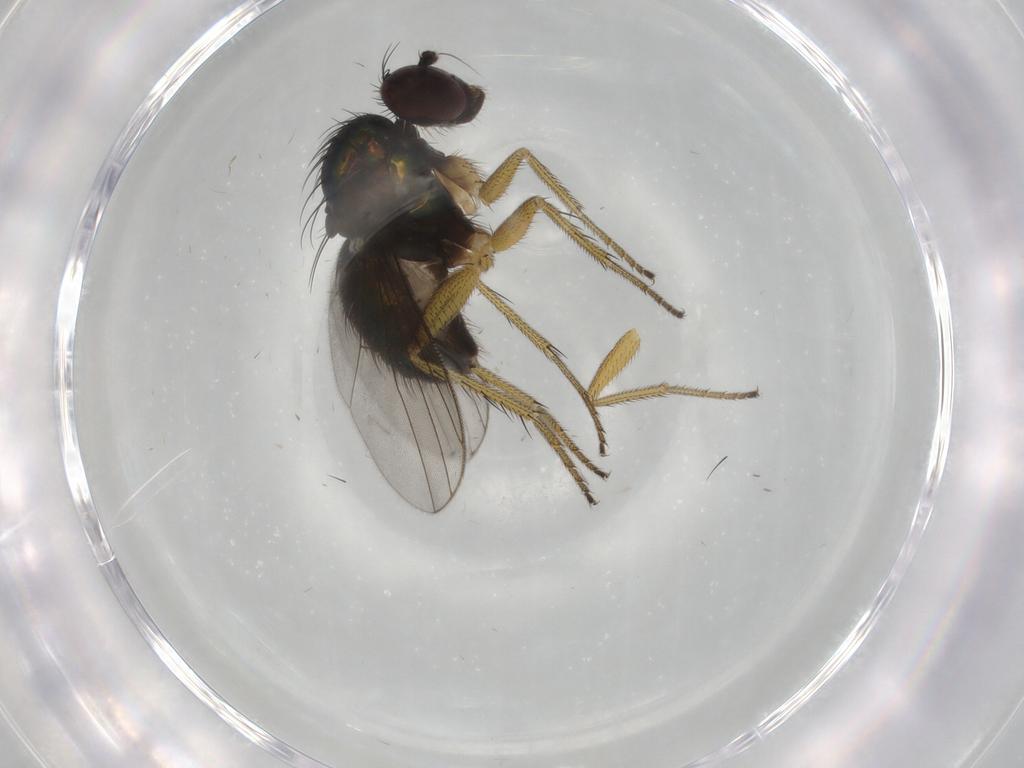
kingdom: Animalia
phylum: Arthropoda
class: Insecta
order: Diptera
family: Dolichopodidae
